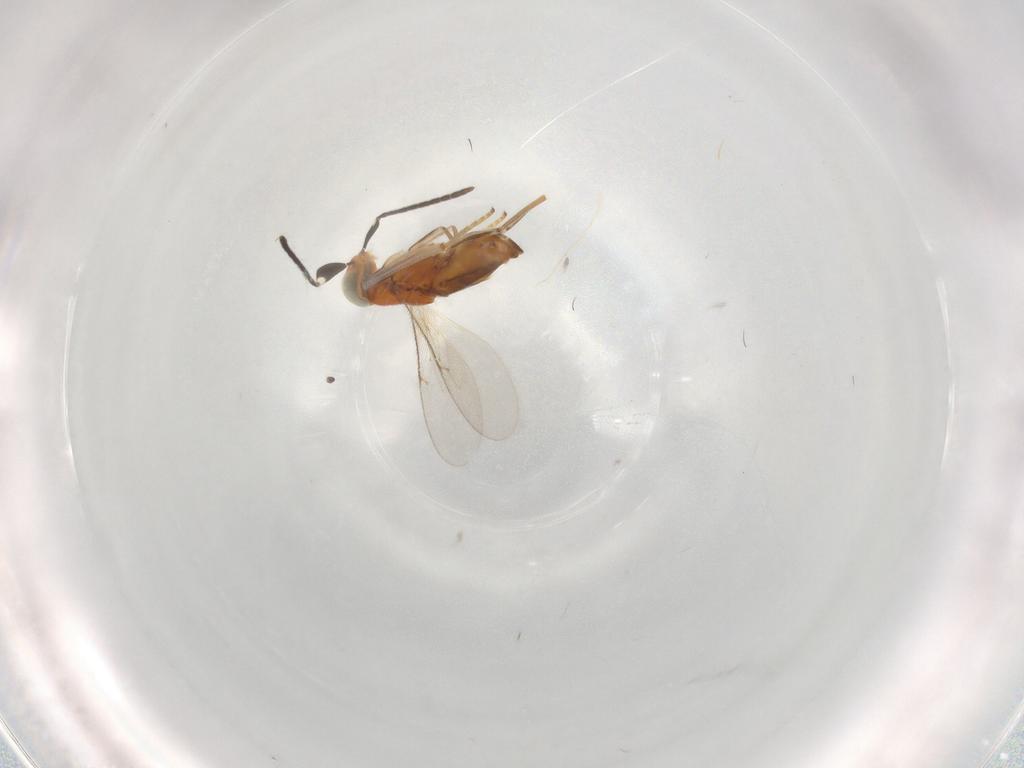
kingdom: Animalia
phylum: Arthropoda
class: Insecta
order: Hymenoptera
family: Encyrtidae
